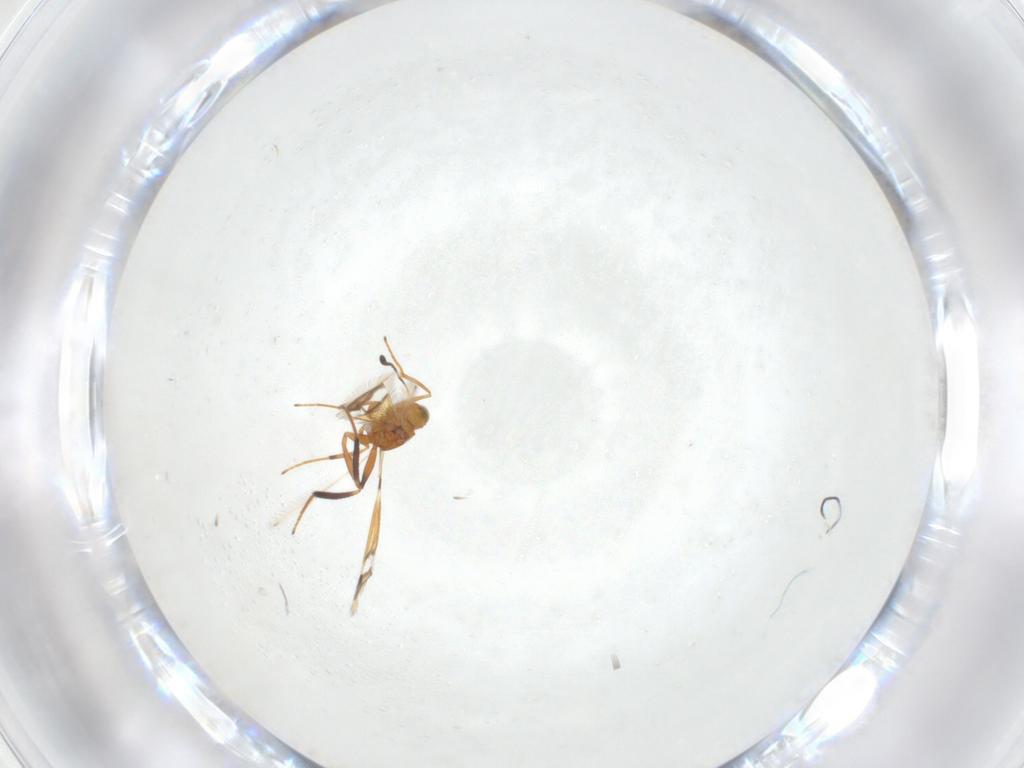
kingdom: Animalia
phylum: Arthropoda
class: Insecta
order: Hymenoptera
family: Mymaridae
